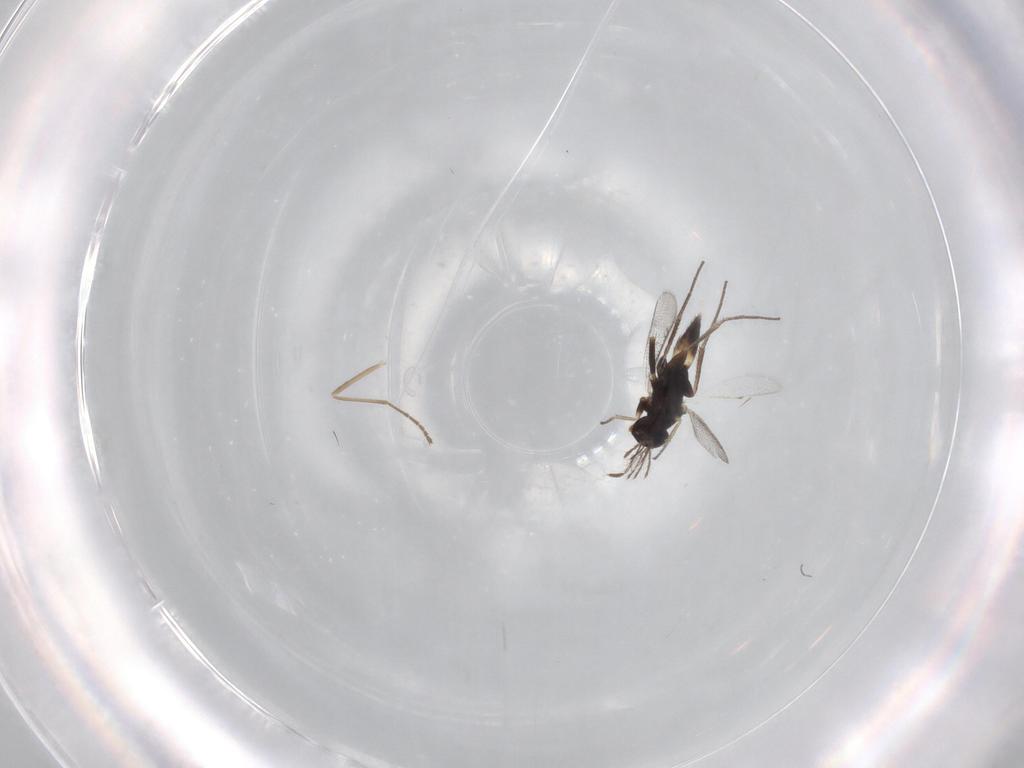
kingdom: Animalia
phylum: Arthropoda
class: Insecta
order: Hymenoptera
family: Eulophidae
